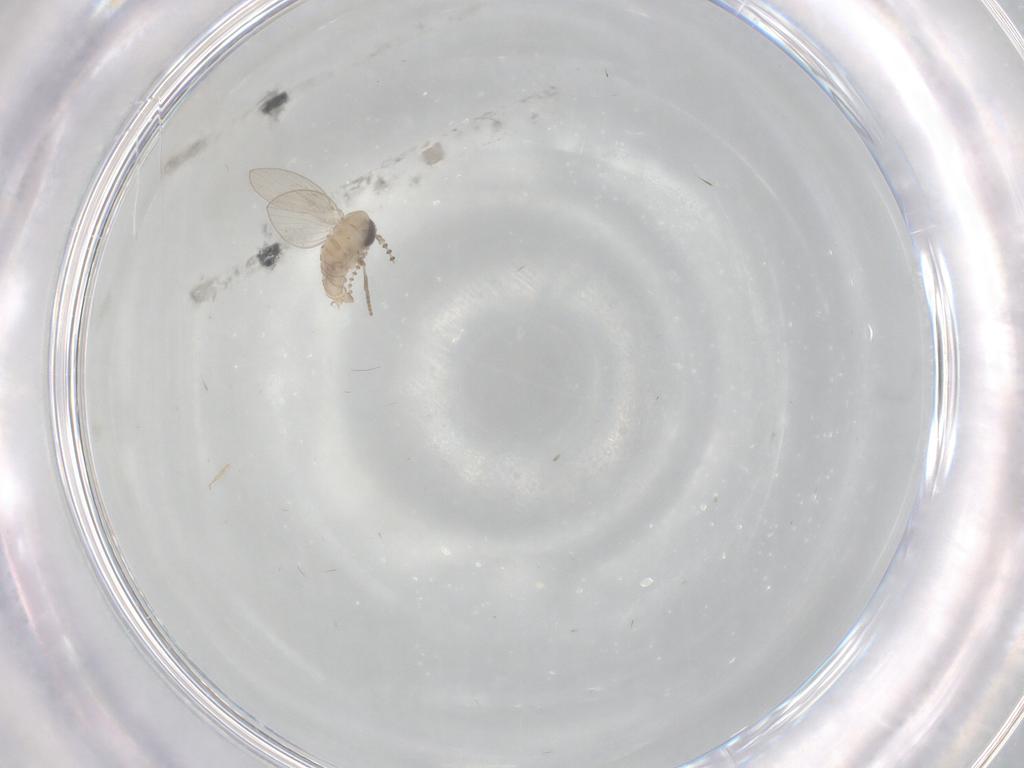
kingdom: Animalia
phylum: Arthropoda
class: Insecta
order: Diptera
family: Psychodidae
